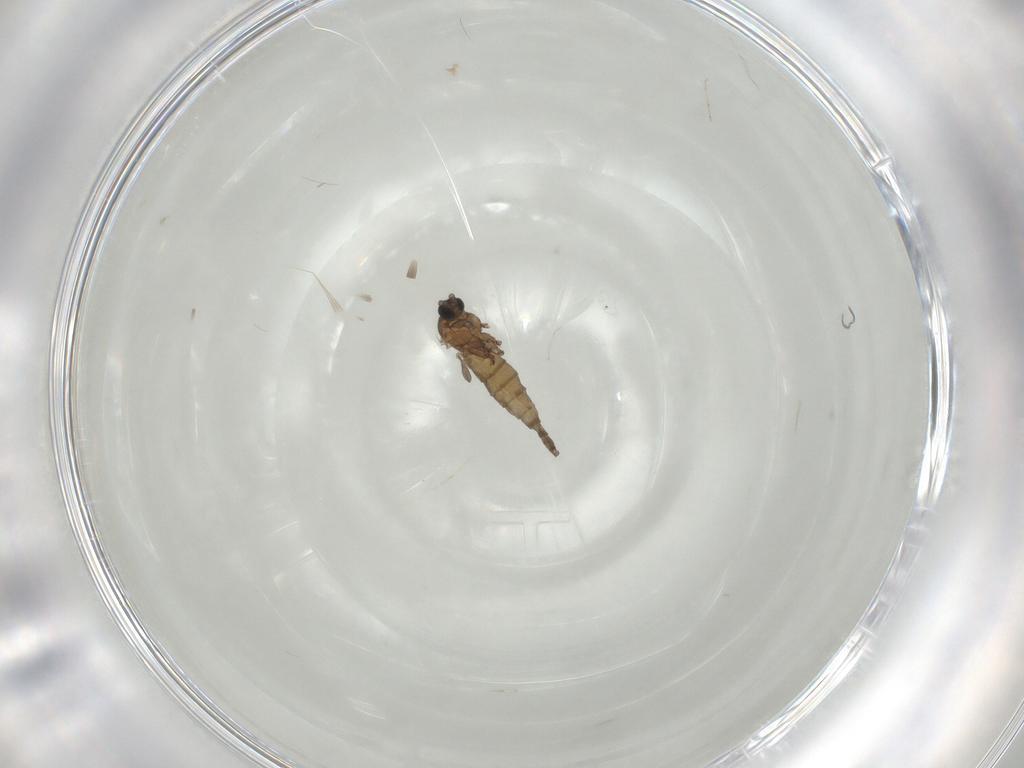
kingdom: Animalia
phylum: Arthropoda
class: Insecta
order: Diptera
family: Sciaridae
